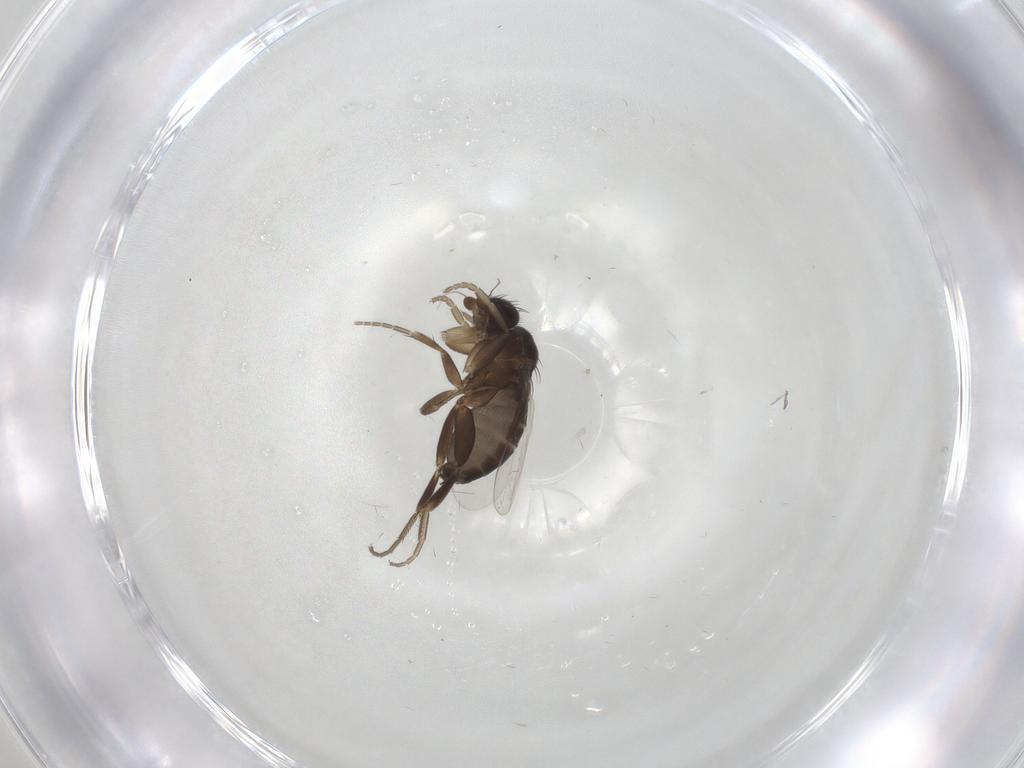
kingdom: Animalia
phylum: Arthropoda
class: Insecta
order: Diptera
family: Phoridae
